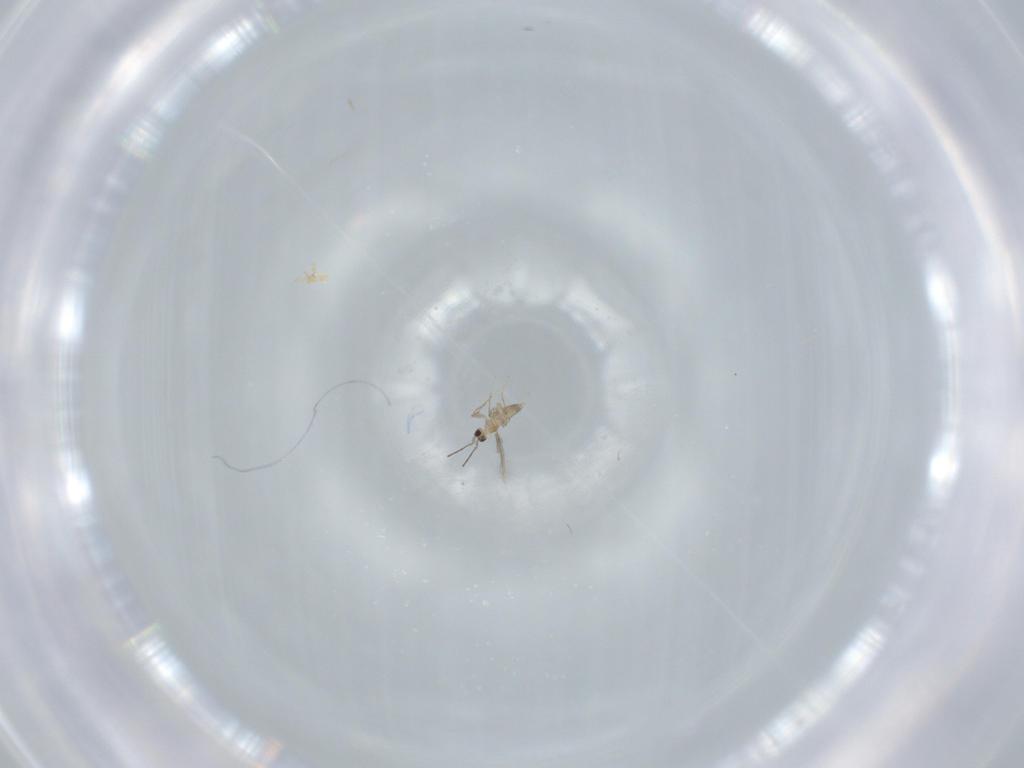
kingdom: Animalia
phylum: Arthropoda
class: Insecta
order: Hymenoptera
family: Mymaridae
